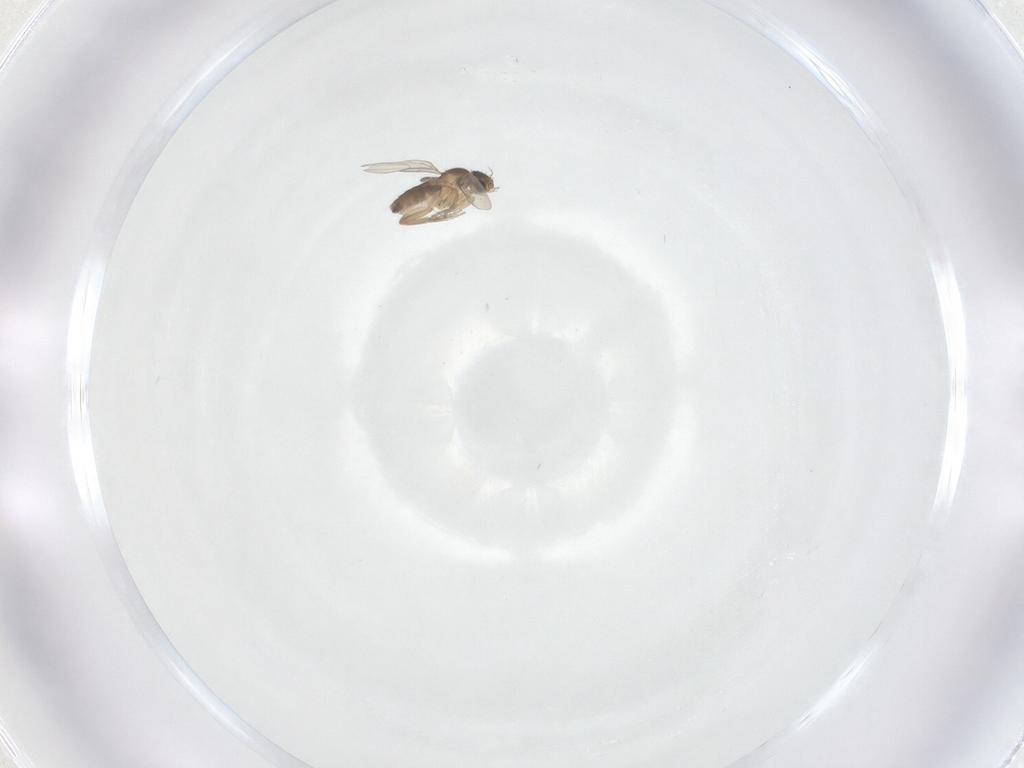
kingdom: Animalia
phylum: Arthropoda
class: Insecta
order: Diptera
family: Phoridae
